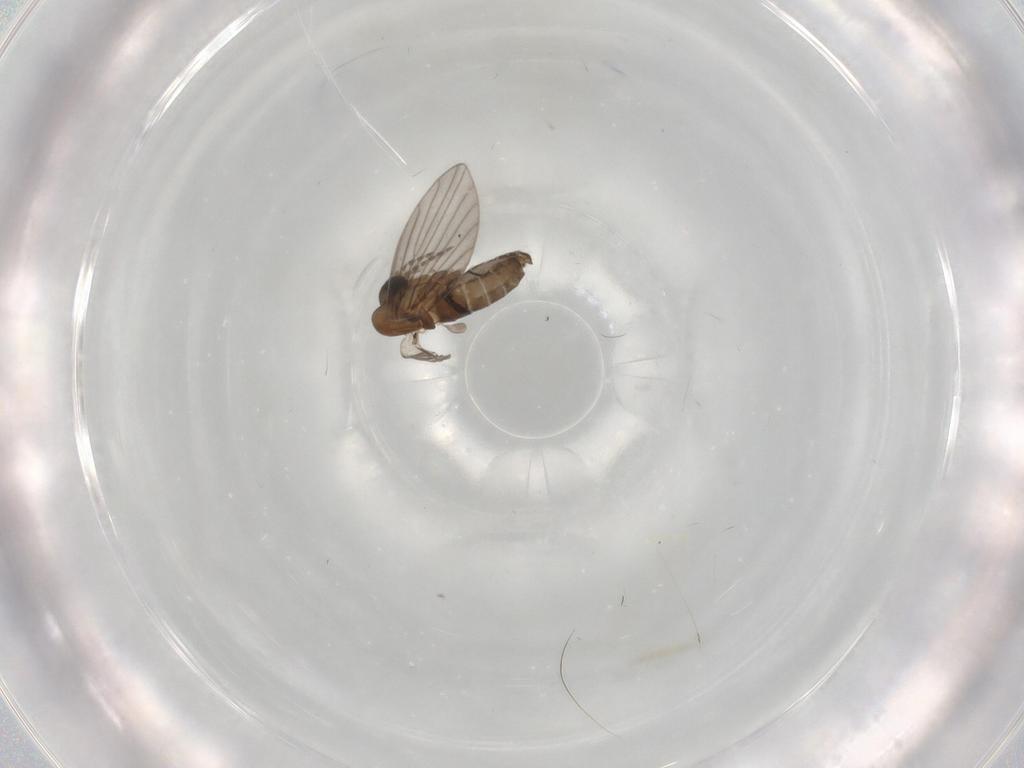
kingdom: Animalia
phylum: Arthropoda
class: Insecta
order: Diptera
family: Psychodidae
